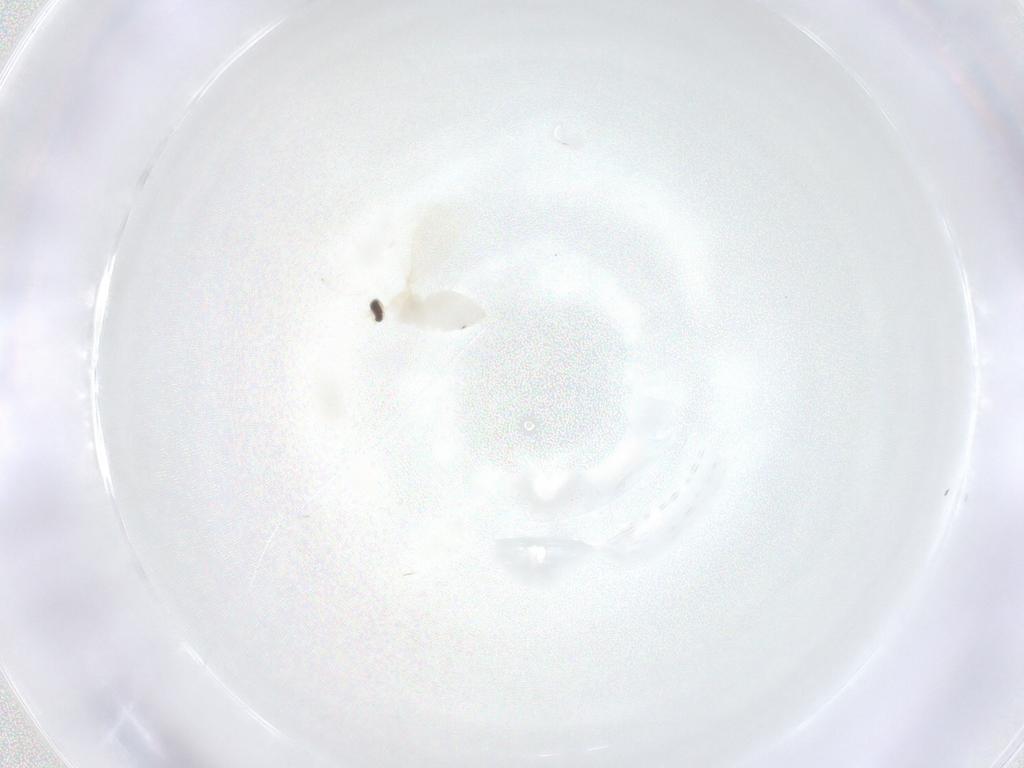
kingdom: Animalia
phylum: Arthropoda
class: Insecta
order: Diptera
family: Cecidomyiidae
